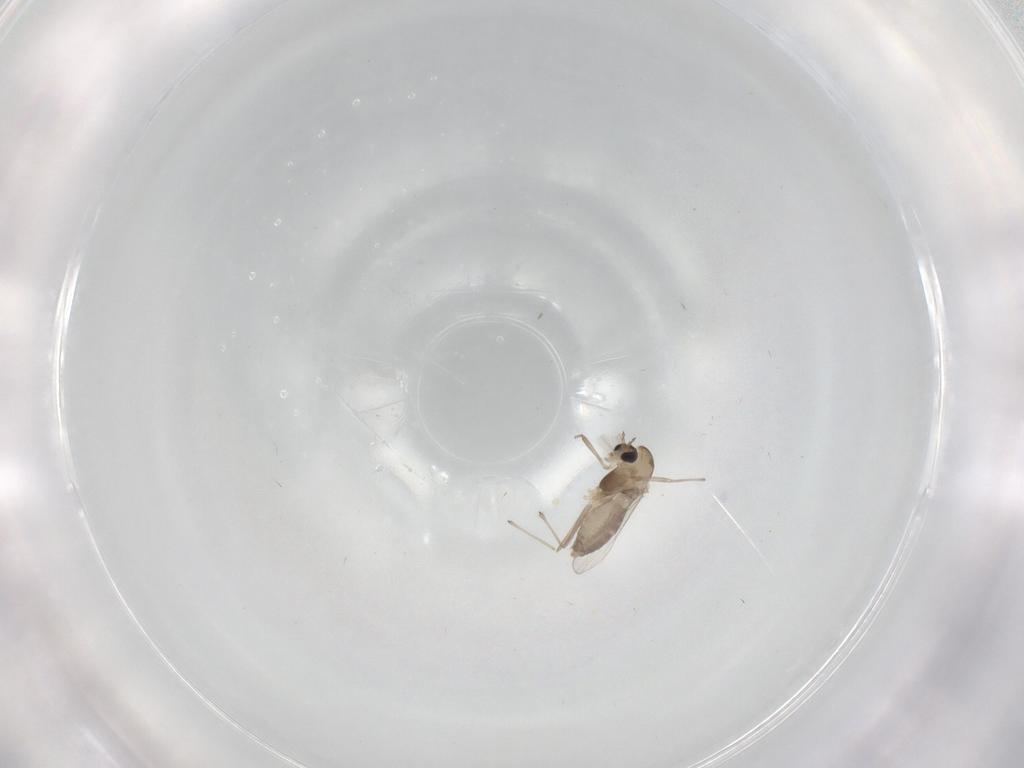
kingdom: Animalia
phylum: Arthropoda
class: Insecta
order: Diptera
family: Chironomidae
